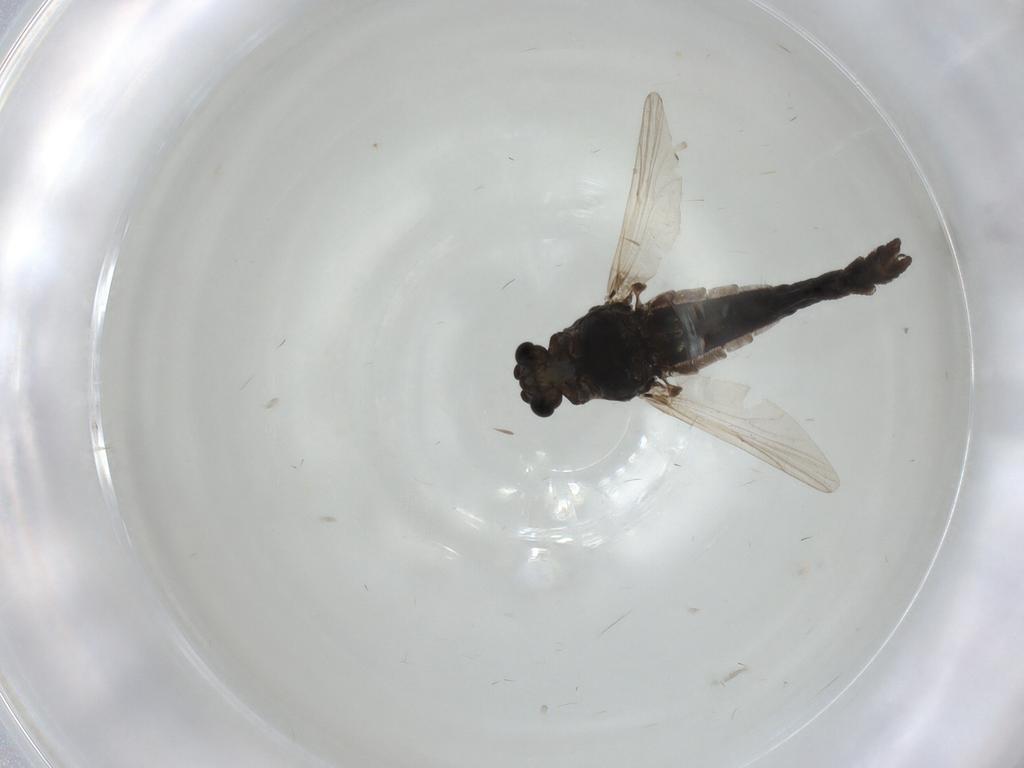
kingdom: Animalia
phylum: Arthropoda
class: Insecta
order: Diptera
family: Chironomidae
